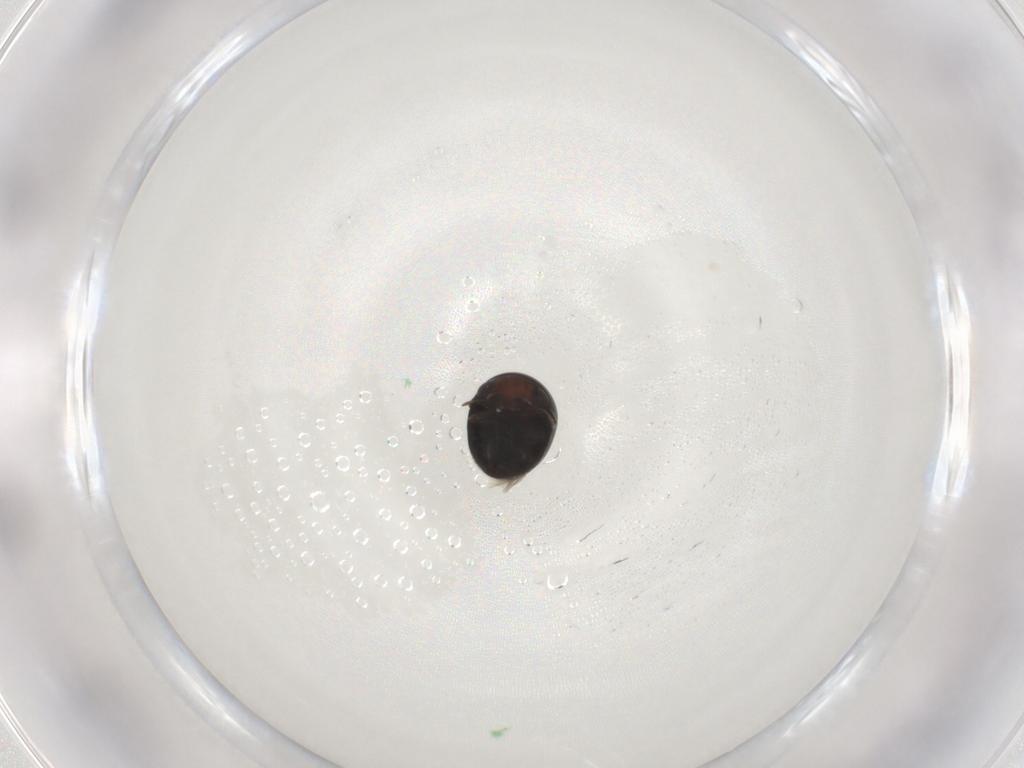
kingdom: Animalia
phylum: Arthropoda
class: Insecta
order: Coleoptera
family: Cybocephalidae
